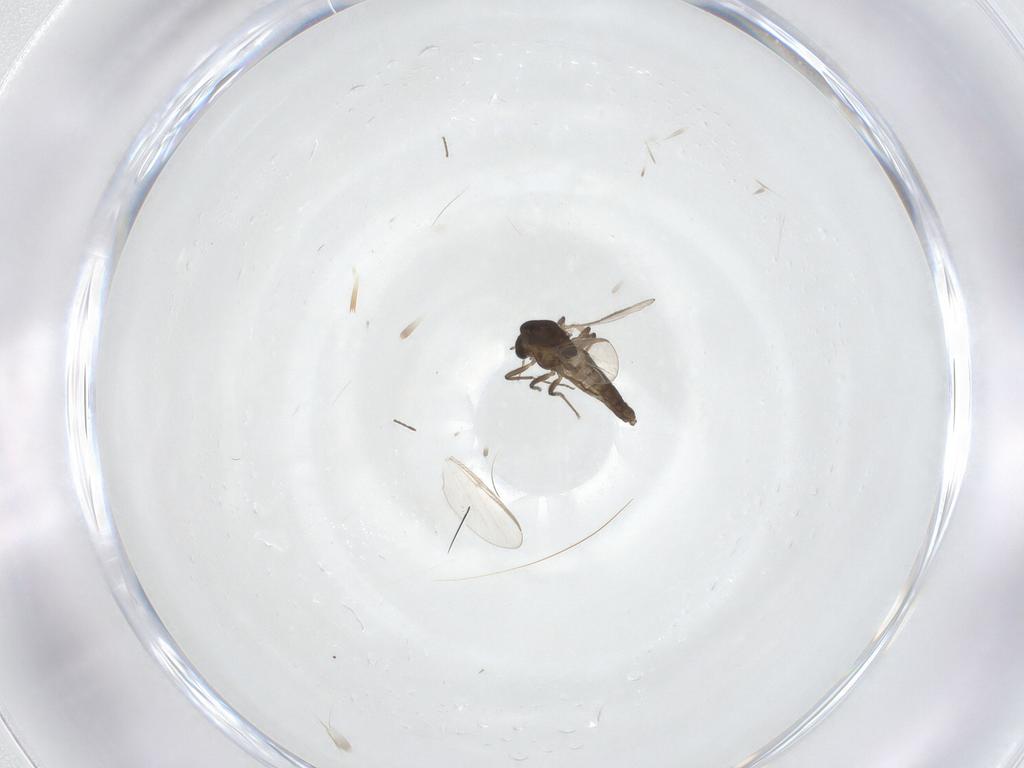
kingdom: Animalia
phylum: Arthropoda
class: Insecta
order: Diptera
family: Chironomidae
